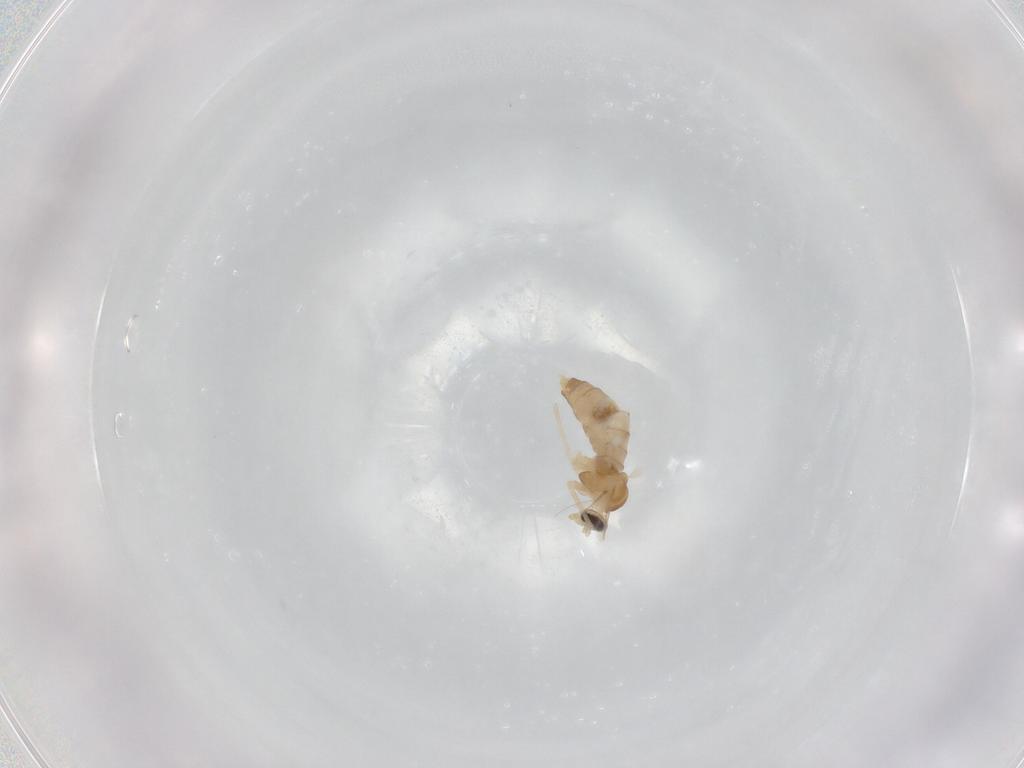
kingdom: Animalia
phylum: Arthropoda
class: Insecta
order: Diptera
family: Cecidomyiidae
